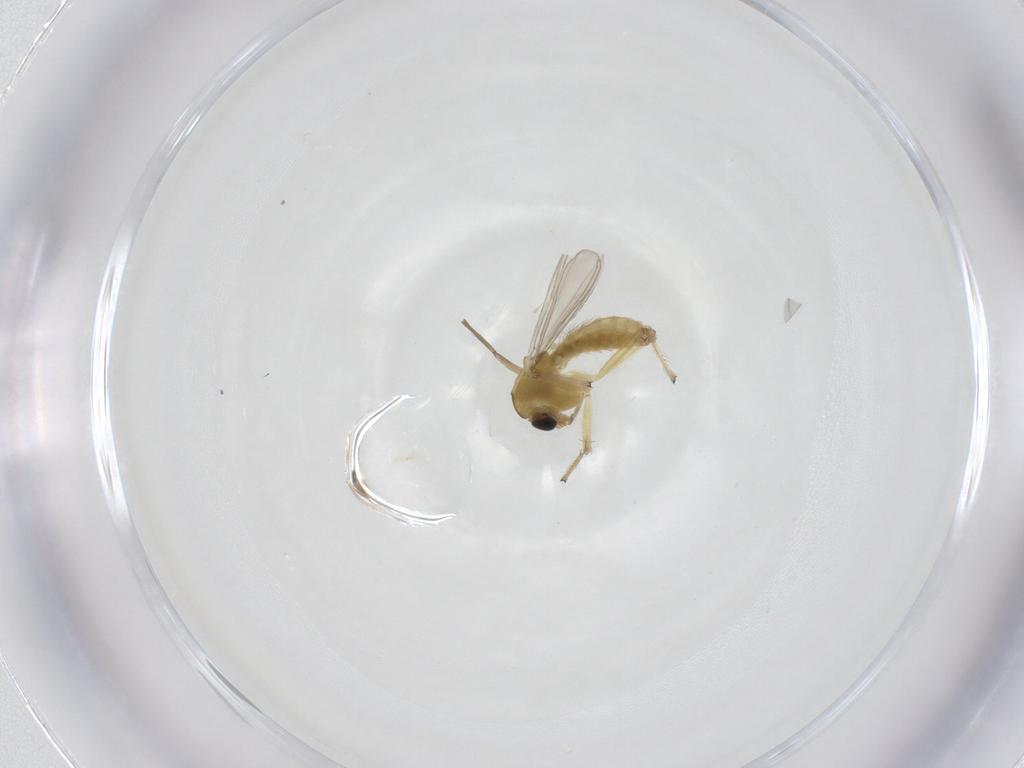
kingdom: Animalia
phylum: Arthropoda
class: Insecta
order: Diptera
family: Chironomidae
